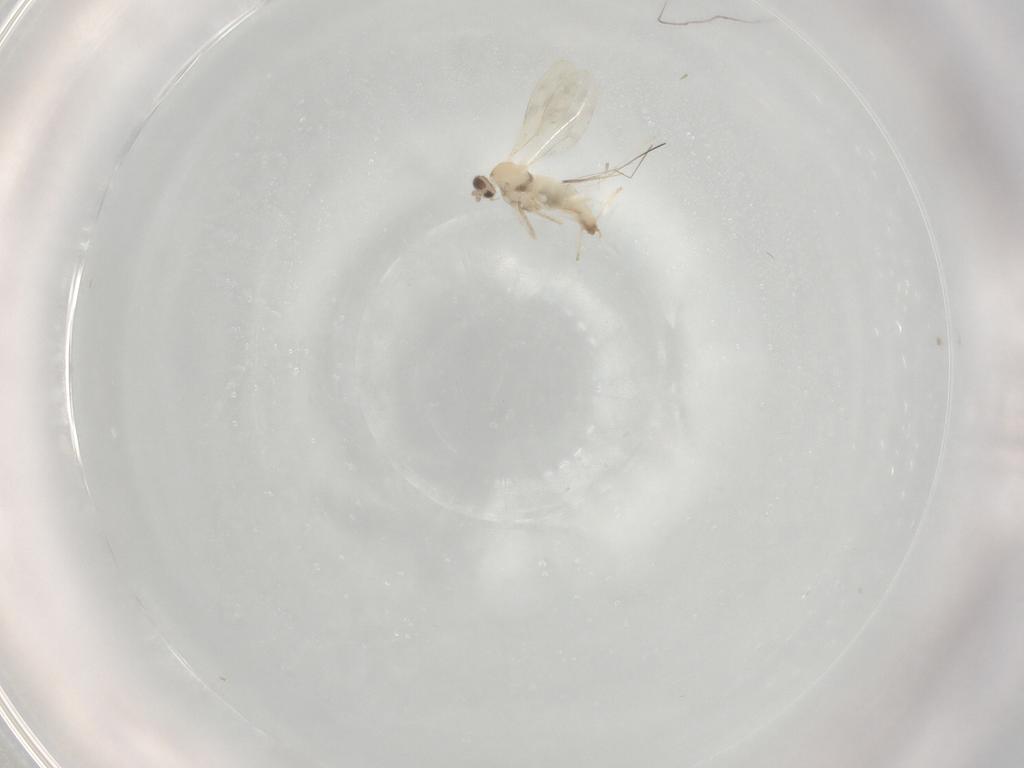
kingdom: Animalia
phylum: Arthropoda
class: Insecta
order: Diptera
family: Cecidomyiidae
